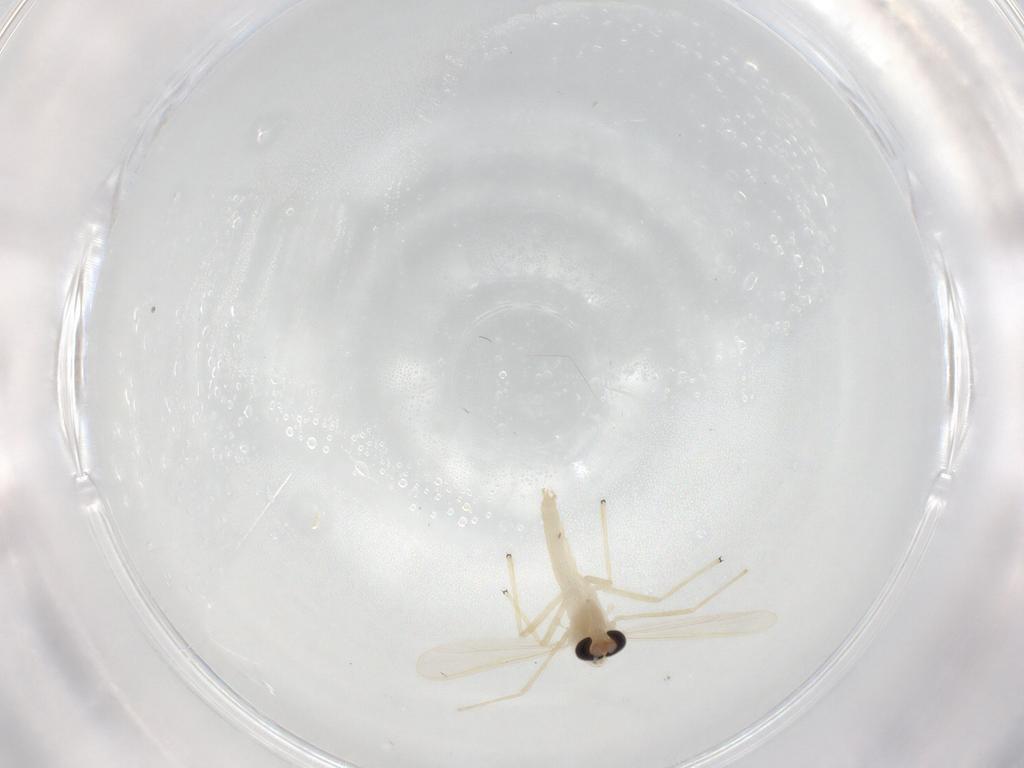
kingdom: Animalia
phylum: Arthropoda
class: Insecta
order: Diptera
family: Chironomidae
